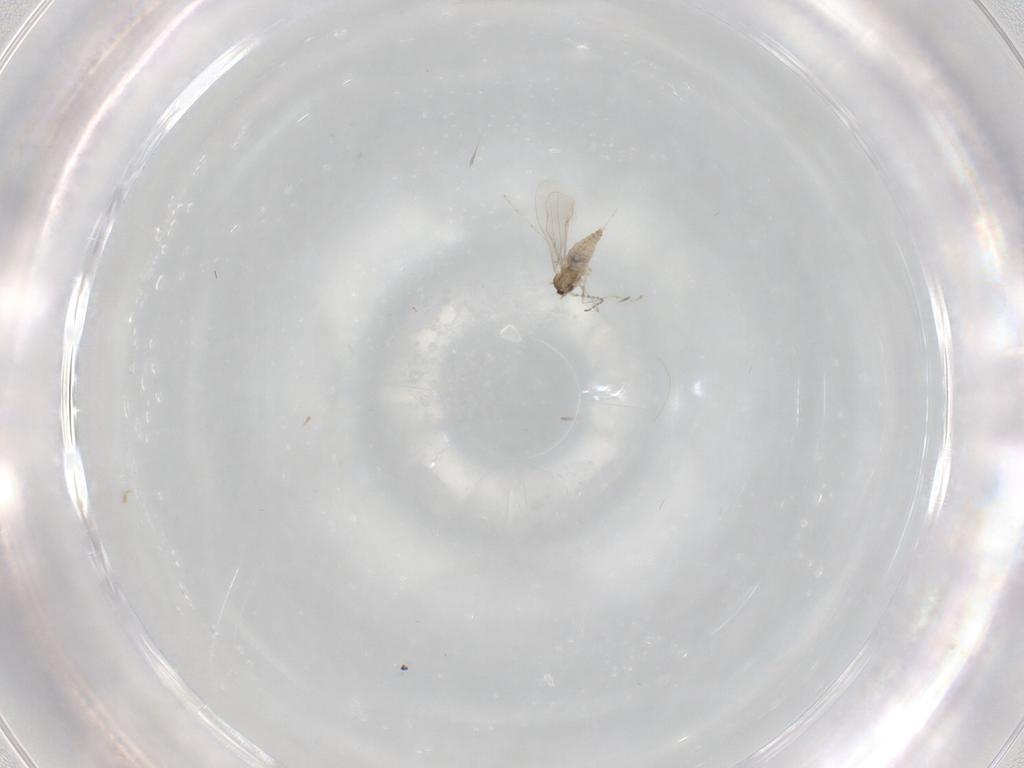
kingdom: Animalia
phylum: Arthropoda
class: Insecta
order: Diptera
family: Cecidomyiidae
